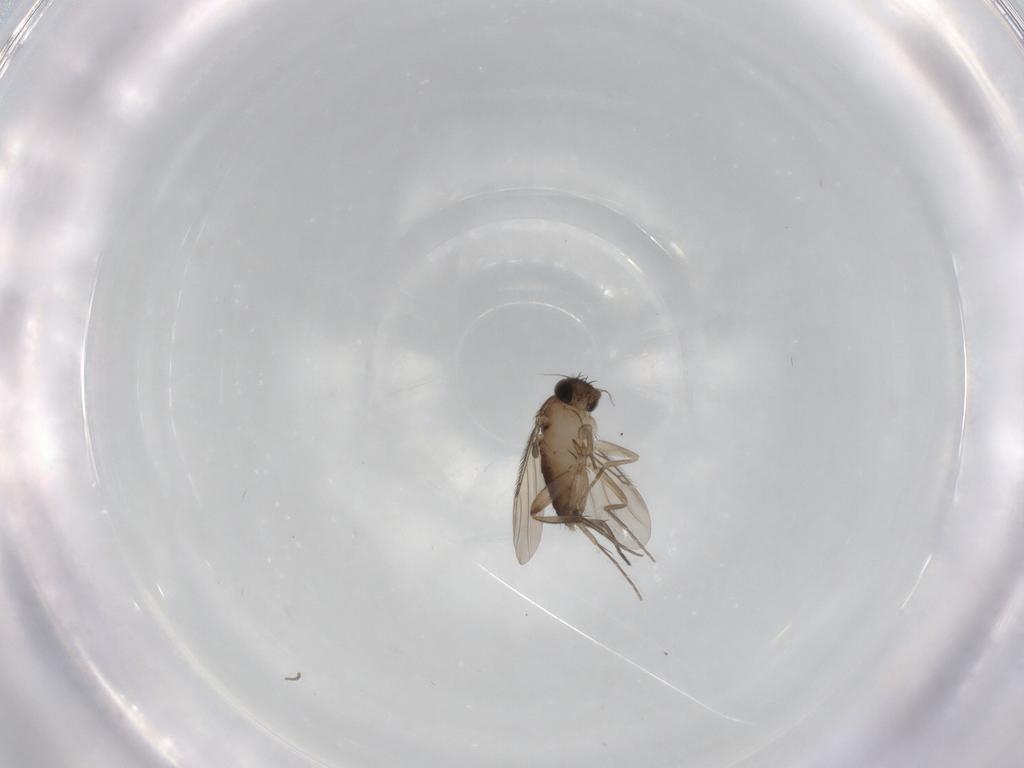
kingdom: Animalia
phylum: Arthropoda
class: Insecta
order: Diptera
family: Phoridae
